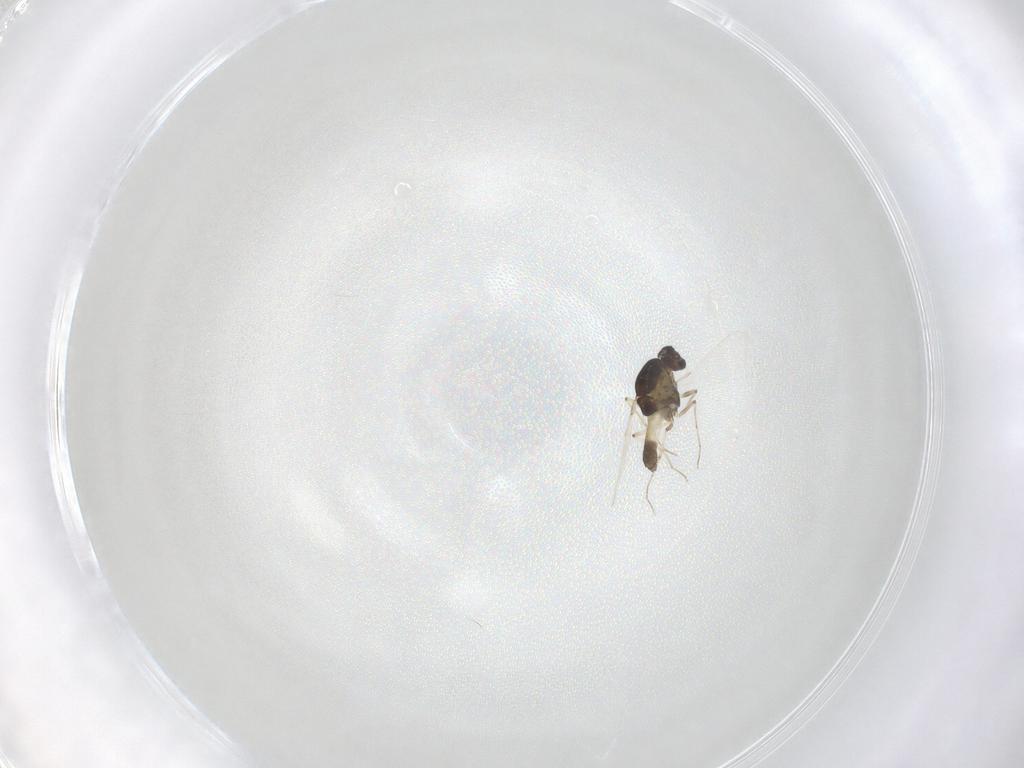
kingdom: Animalia
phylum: Arthropoda
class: Insecta
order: Diptera
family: Chironomidae
